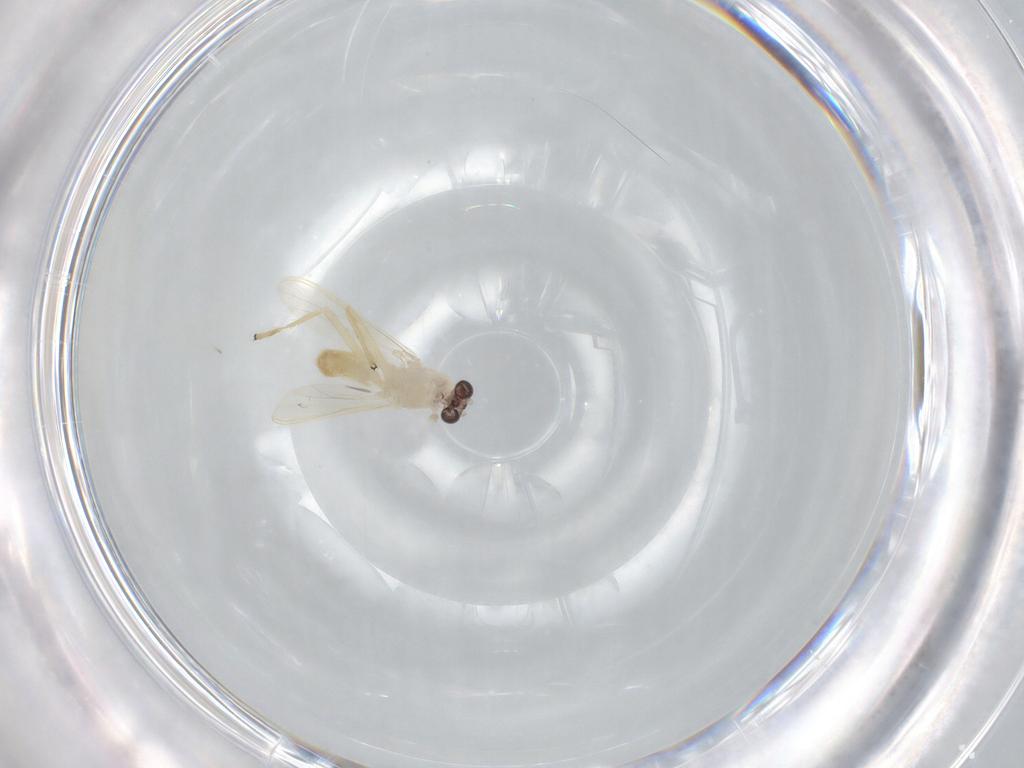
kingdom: Animalia
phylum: Arthropoda
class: Insecta
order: Diptera
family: Chironomidae
